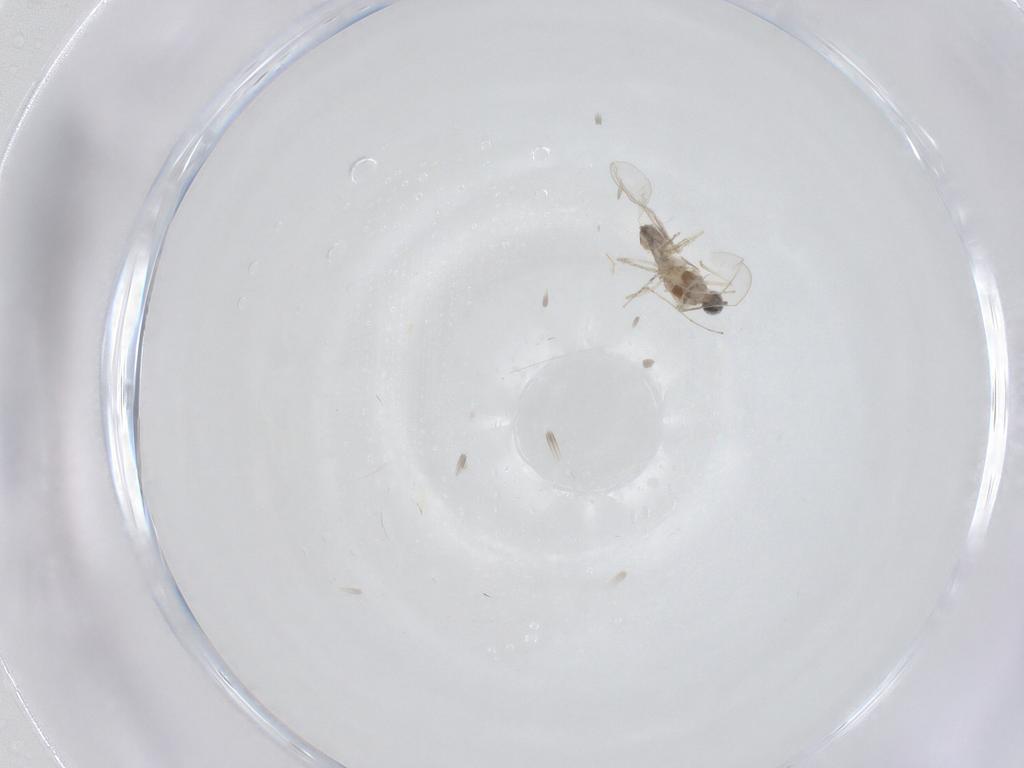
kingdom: Animalia
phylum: Arthropoda
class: Insecta
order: Diptera
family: Cecidomyiidae
